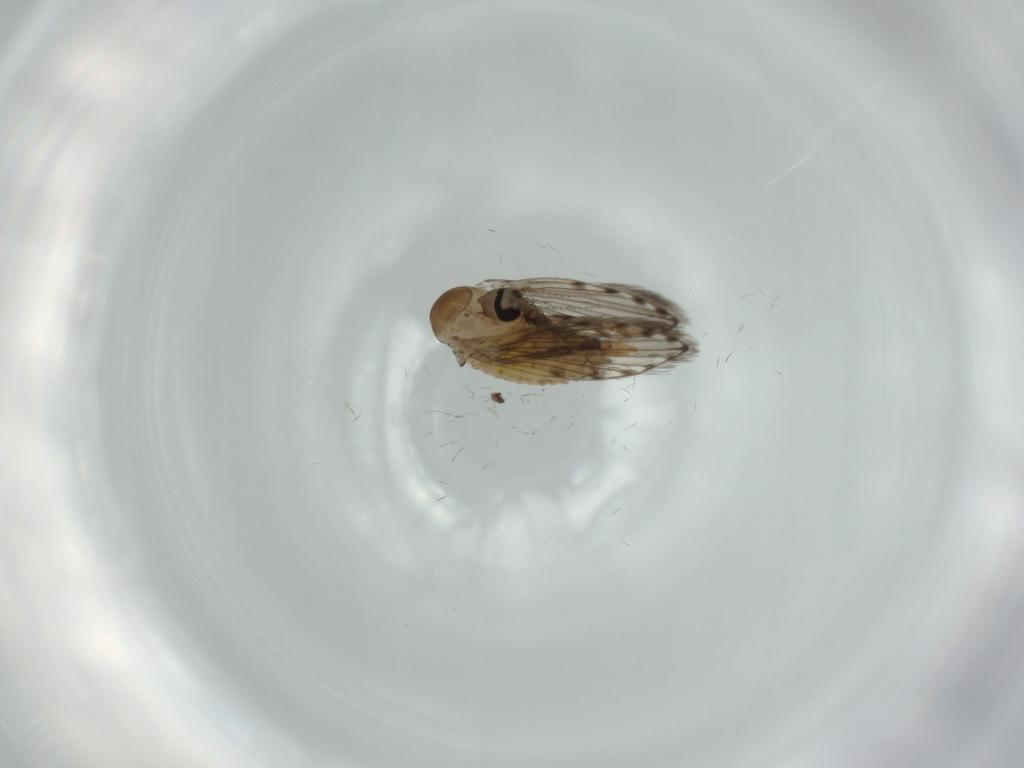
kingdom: Animalia
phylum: Arthropoda
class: Insecta
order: Diptera
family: Psychodidae
